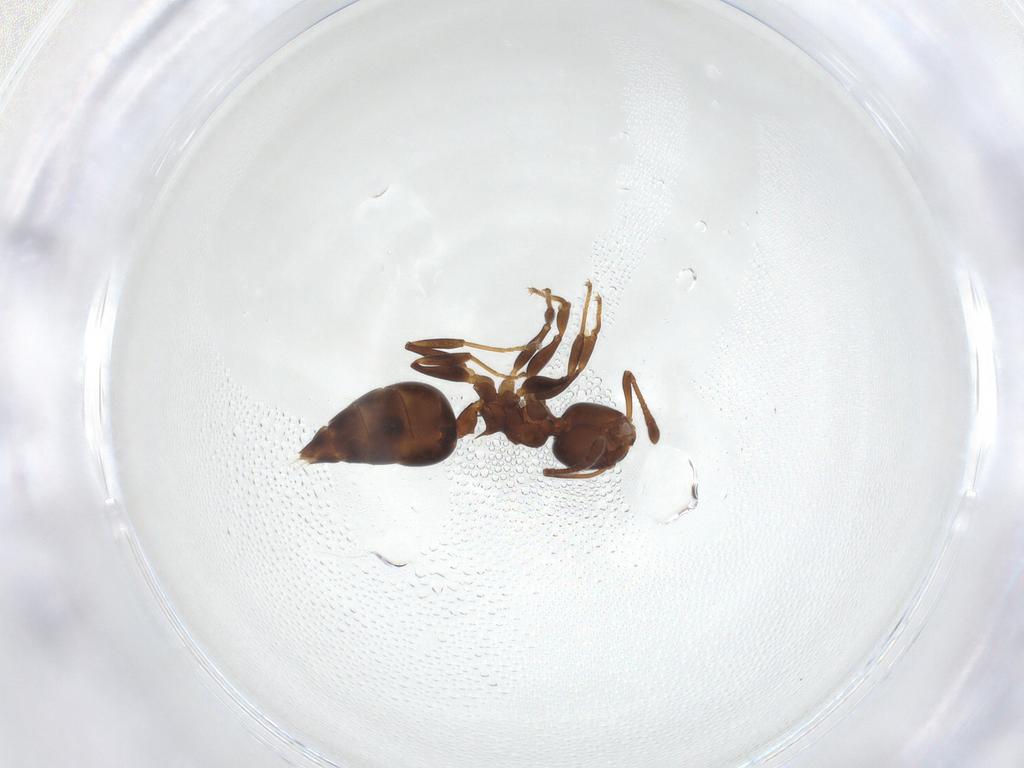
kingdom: Animalia
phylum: Arthropoda
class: Insecta
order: Hymenoptera
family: Formicidae
